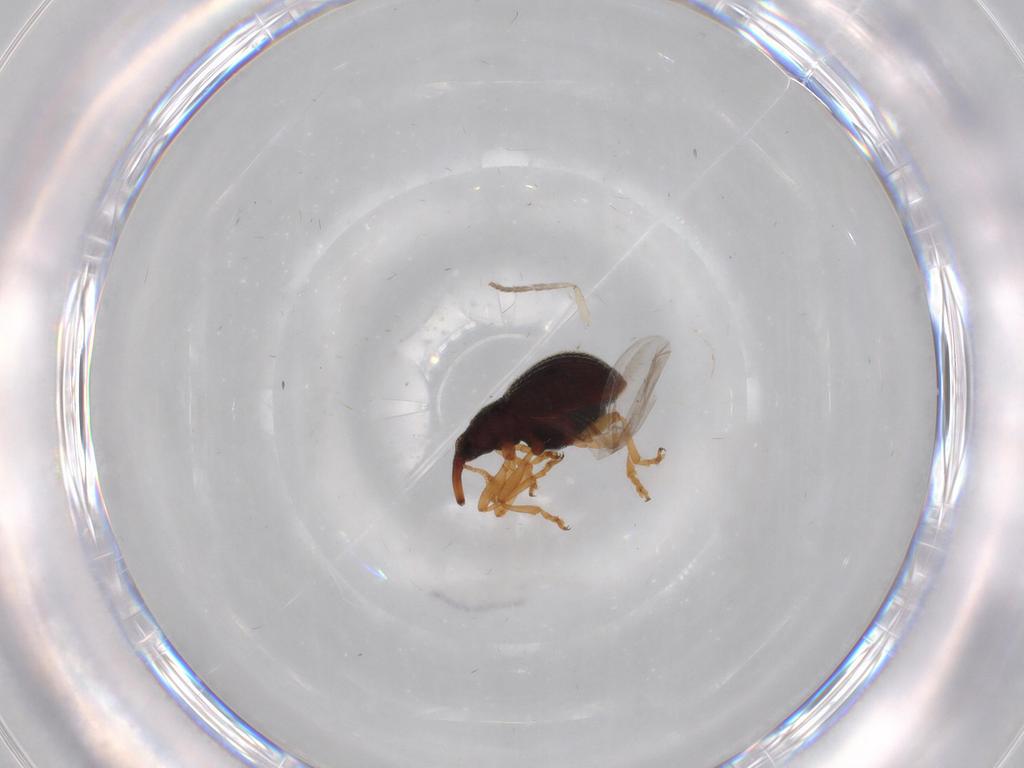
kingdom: Animalia
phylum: Arthropoda
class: Insecta
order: Coleoptera
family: Brentidae
